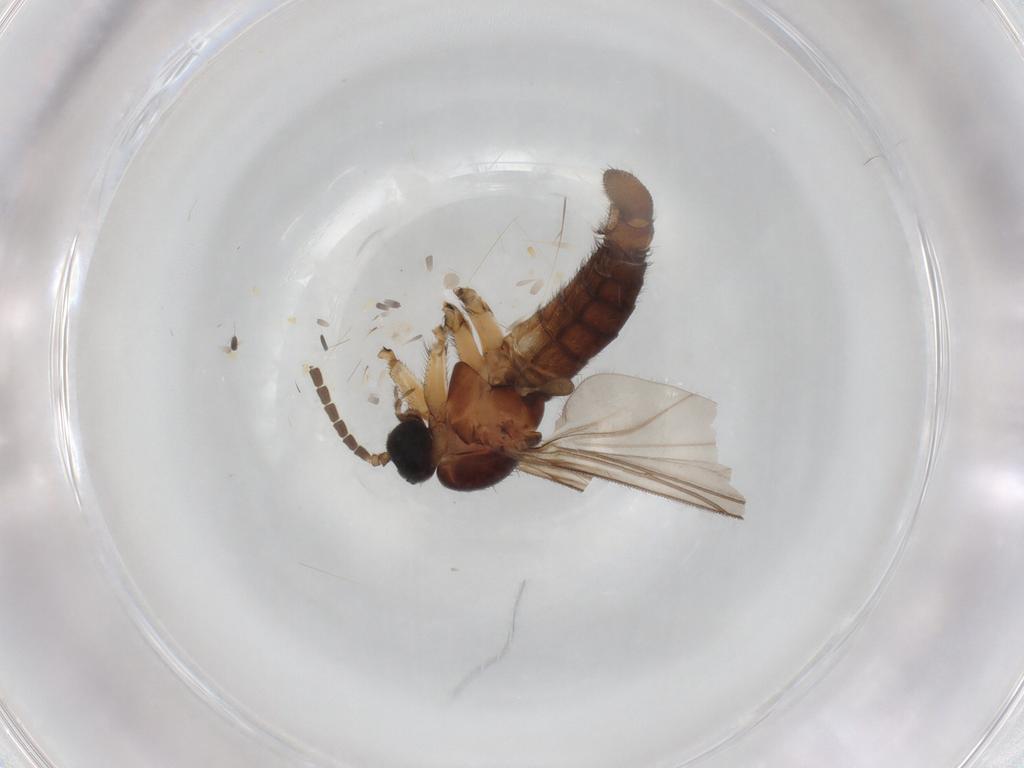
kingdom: Animalia
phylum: Arthropoda
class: Insecta
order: Diptera
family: Sciaridae
